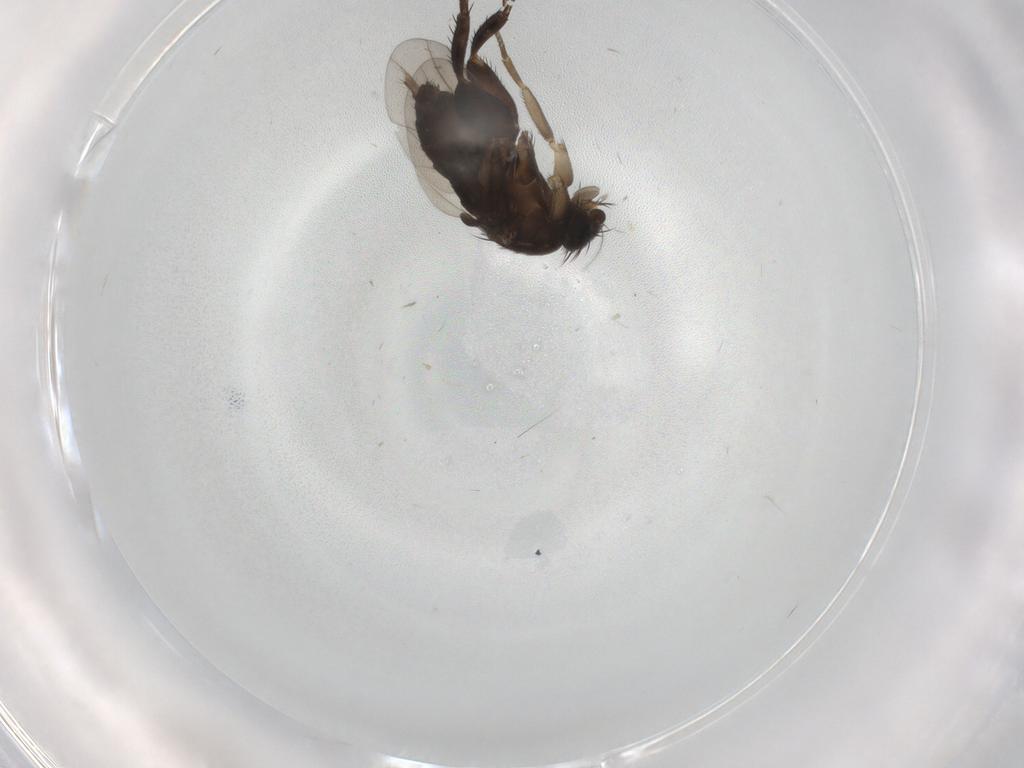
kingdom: Animalia
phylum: Arthropoda
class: Insecta
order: Diptera
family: Phoridae
